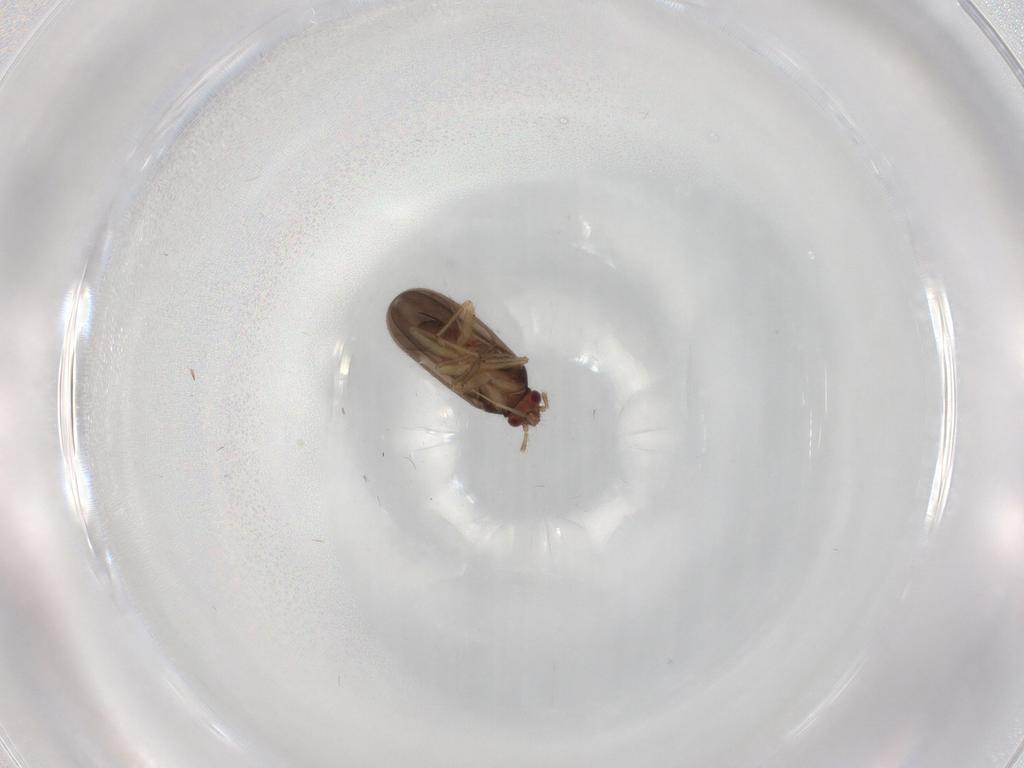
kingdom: Animalia
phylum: Arthropoda
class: Insecta
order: Hemiptera
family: Ceratocombidae
